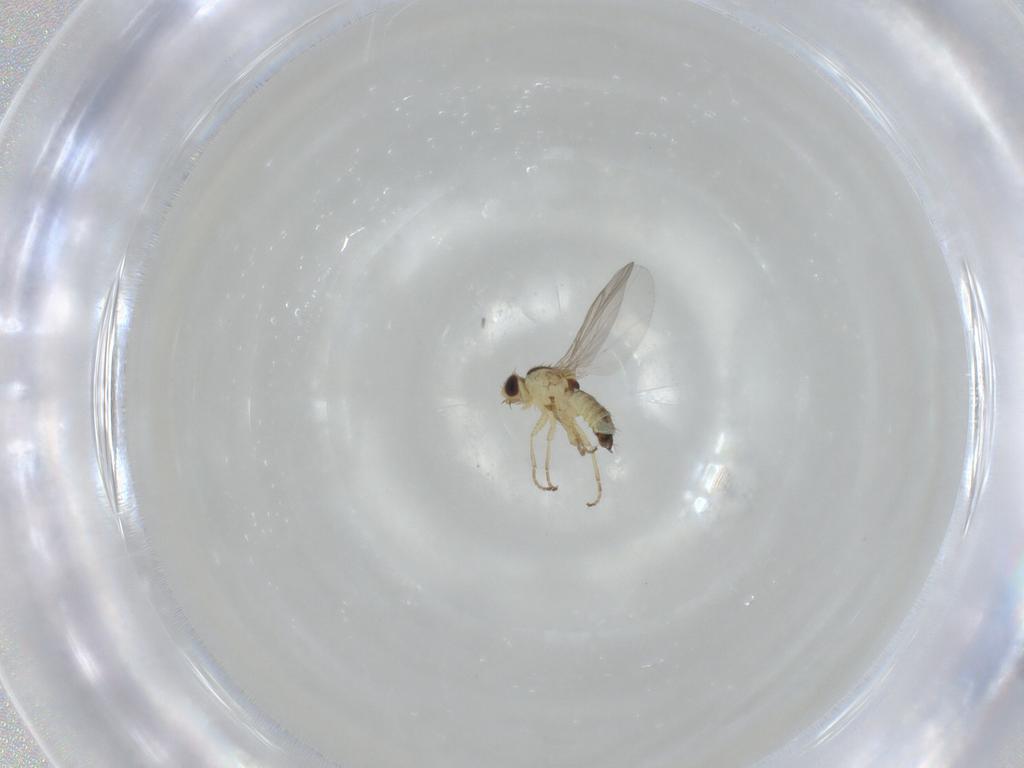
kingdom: Animalia
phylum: Arthropoda
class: Insecta
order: Diptera
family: Agromyzidae
